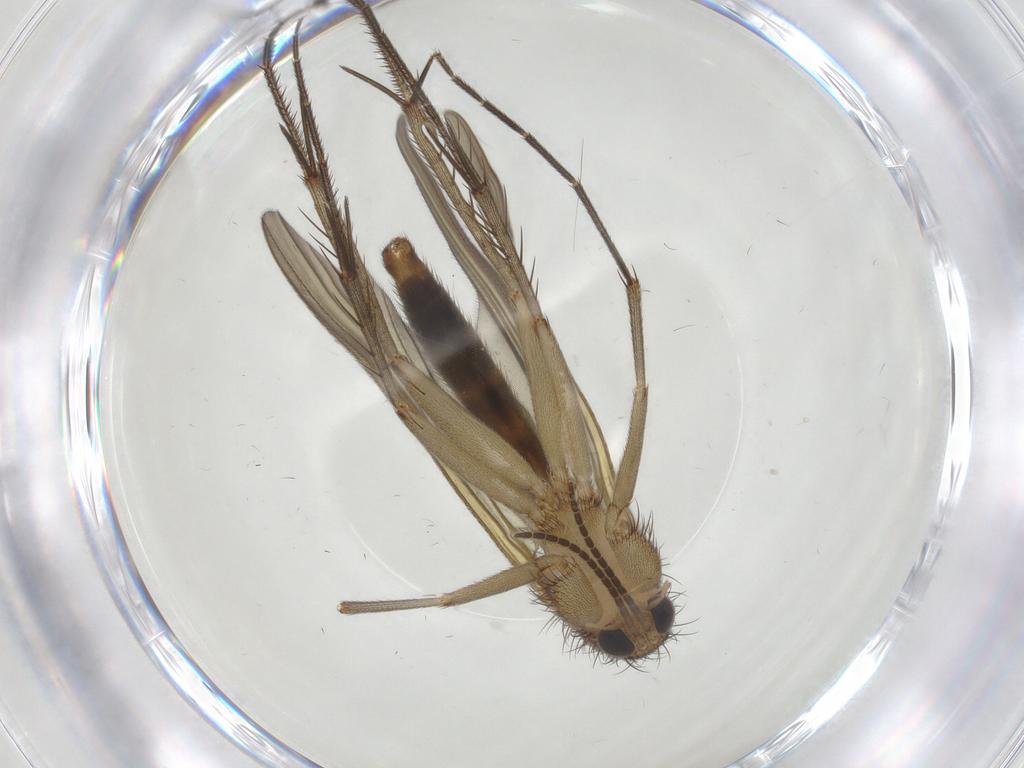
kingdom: Animalia
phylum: Arthropoda
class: Insecta
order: Diptera
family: Mycetophilidae
